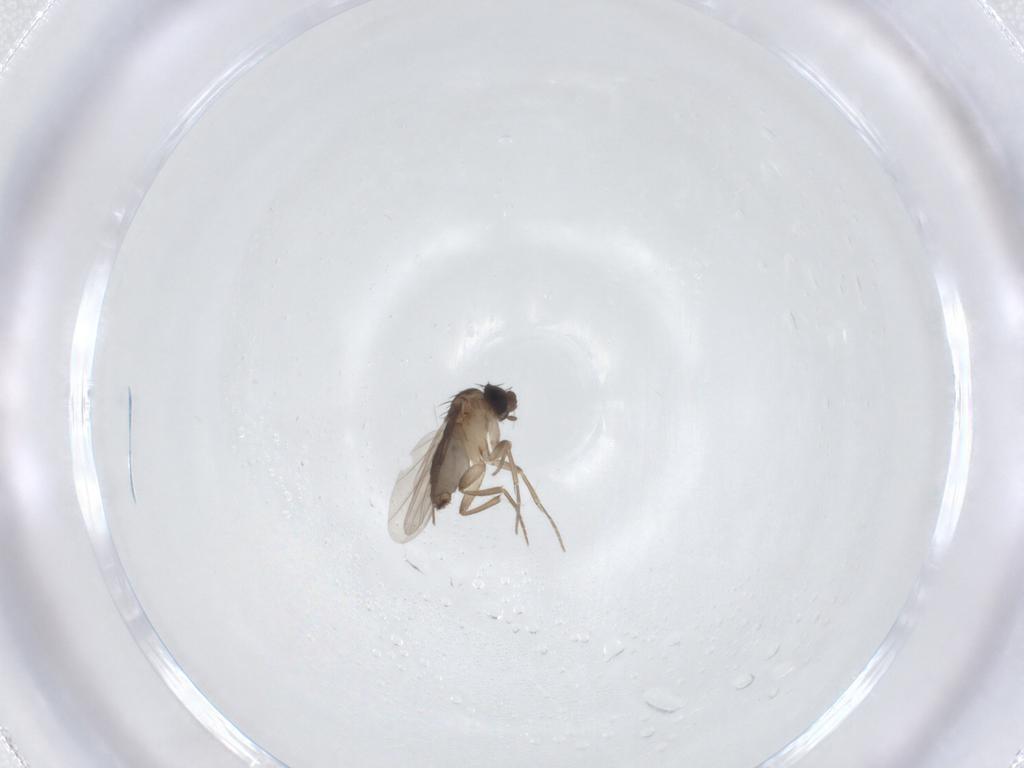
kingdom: Animalia
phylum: Arthropoda
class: Insecta
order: Diptera
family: Phoridae
